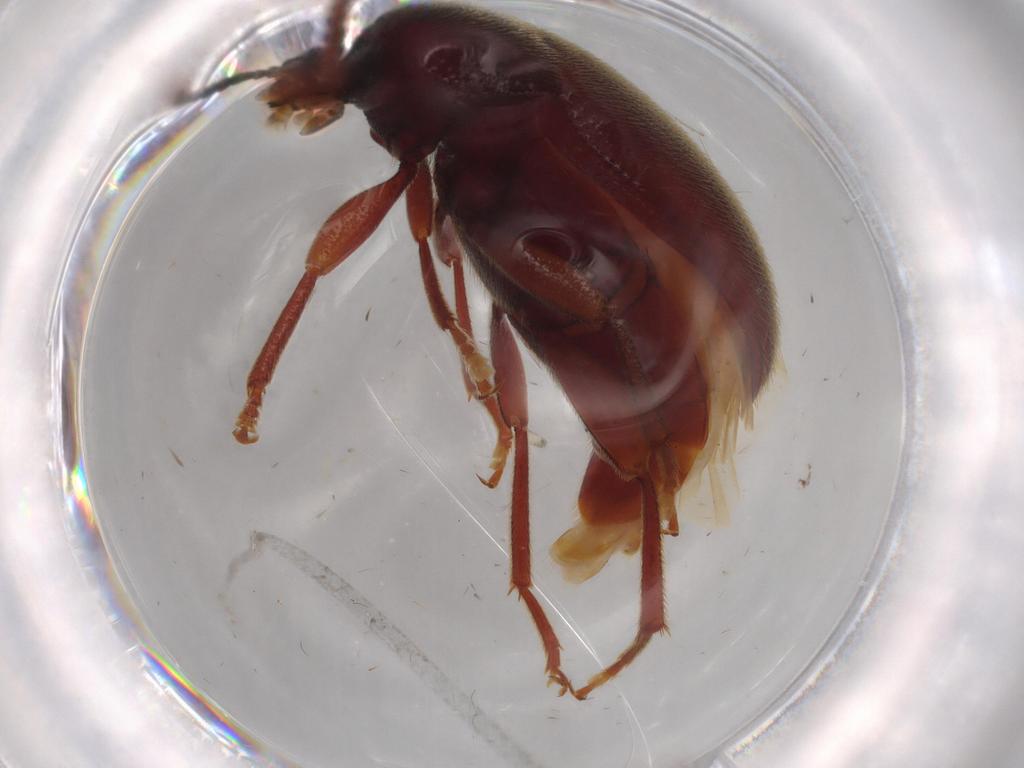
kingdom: Animalia
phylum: Arthropoda
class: Insecta
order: Coleoptera
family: Tenebrionidae
